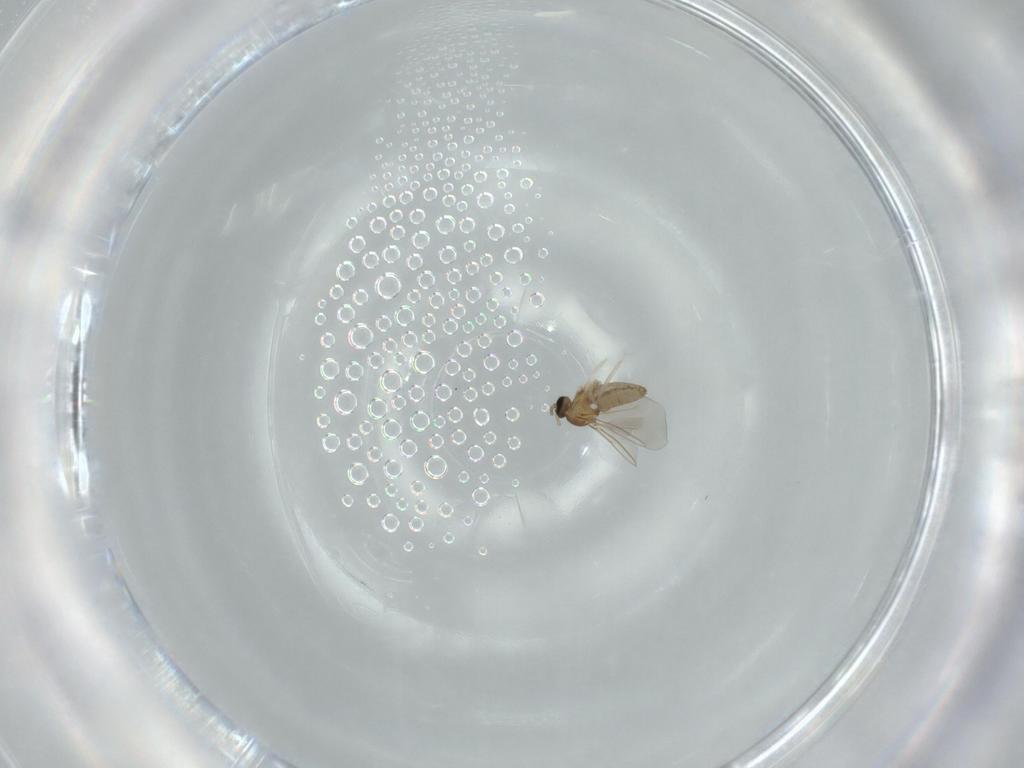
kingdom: Animalia
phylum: Arthropoda
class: Insecta
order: Diptera
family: Cecidomyiidae
